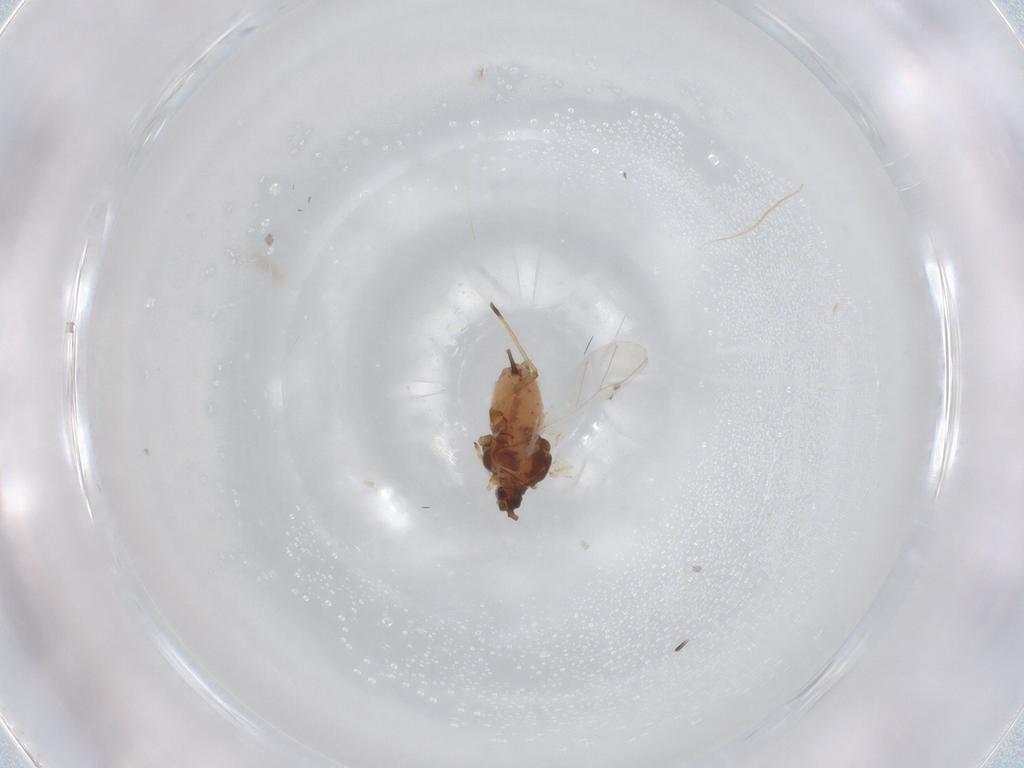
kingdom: Animalia
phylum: Arthropoda
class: Insecta
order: Hemiptera
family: Aphididae
